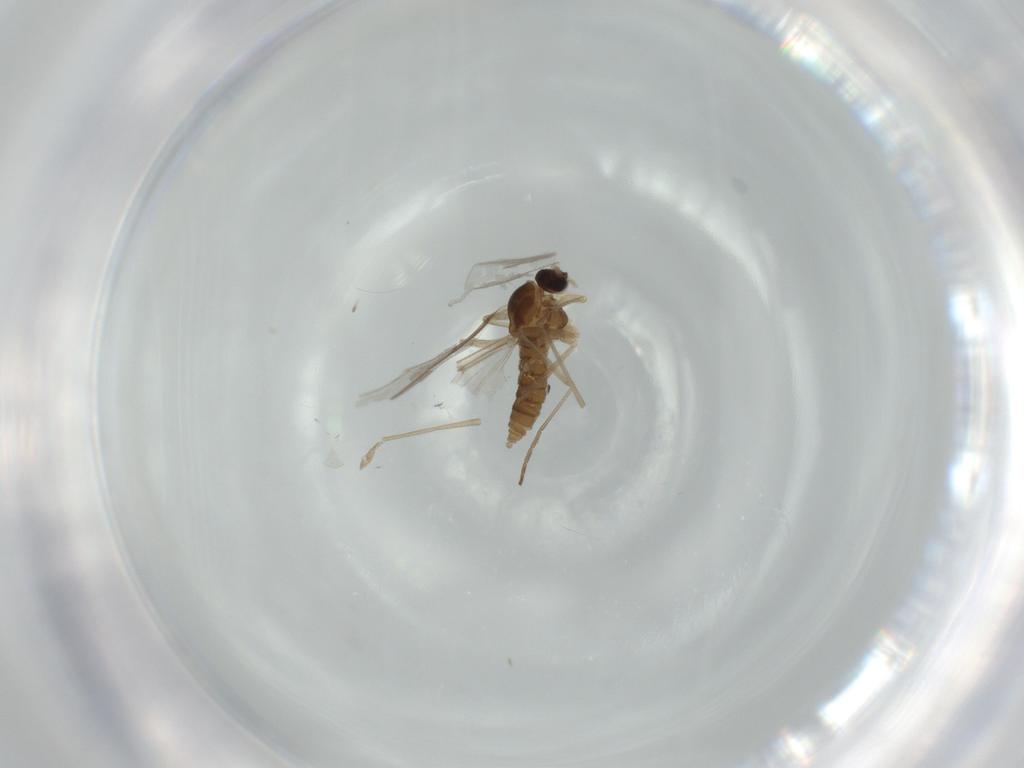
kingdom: Animalia
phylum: Arthropoda
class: Insecta
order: Diptera
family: Cecidomyiidae
